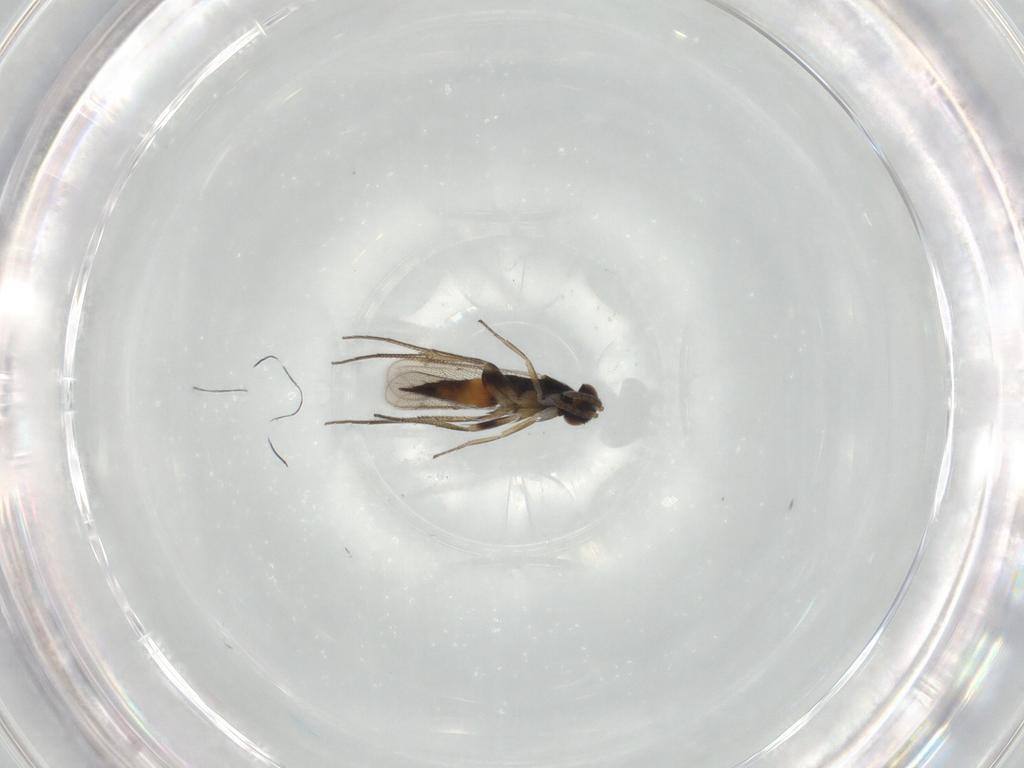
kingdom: Animalia
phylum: Arthropoda
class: Insecta
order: Hymenoptera
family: Eulophidae
